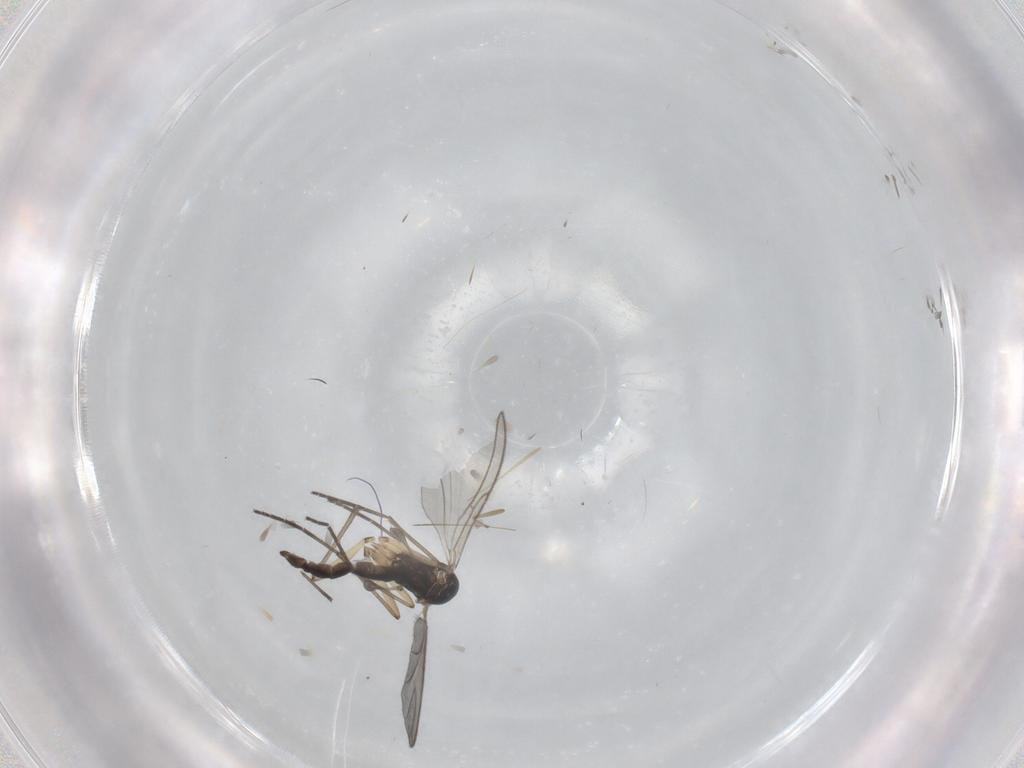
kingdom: Animalia
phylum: Arthropoda
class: Insecta
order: Diptera
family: Sciaridae
